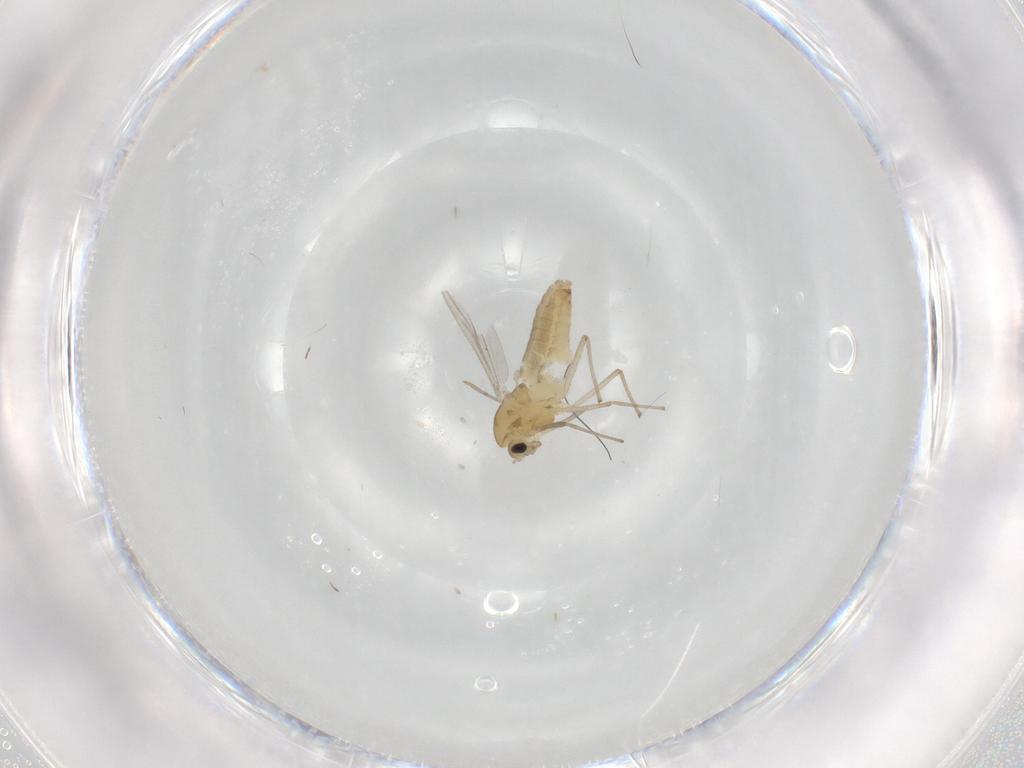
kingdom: Animalia
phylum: Arthropoda
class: Insecta
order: Diptera
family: Chironomidae
